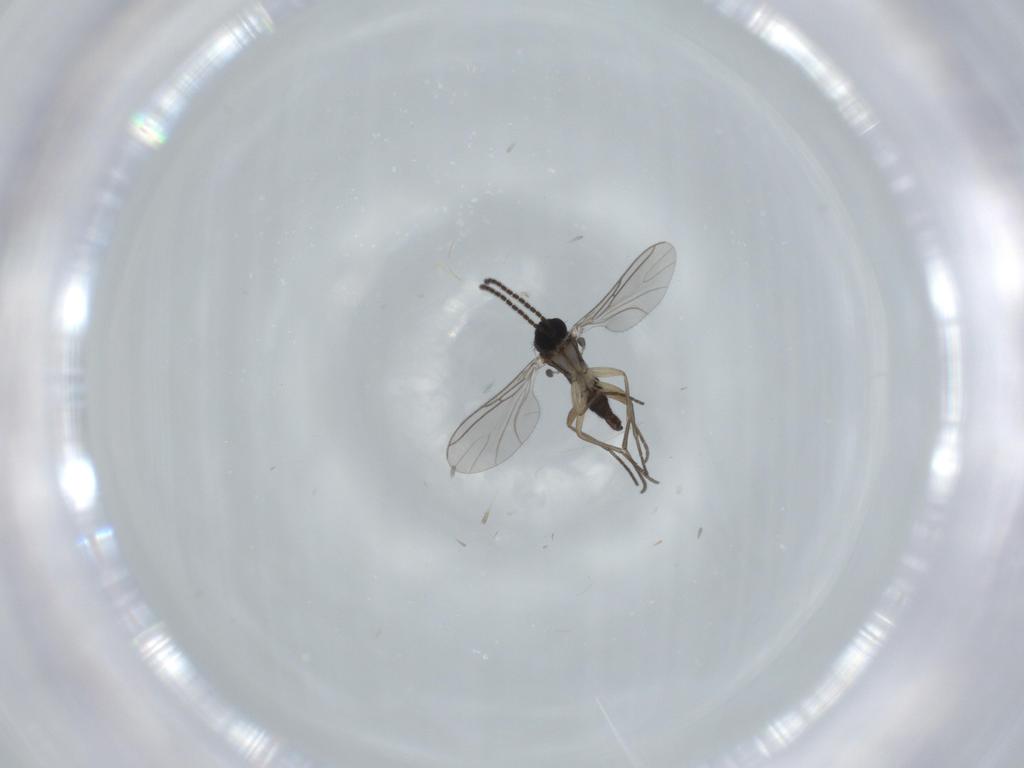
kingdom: Animalia
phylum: Arthropoda
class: Insecta
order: Diptera
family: Sciaridae
